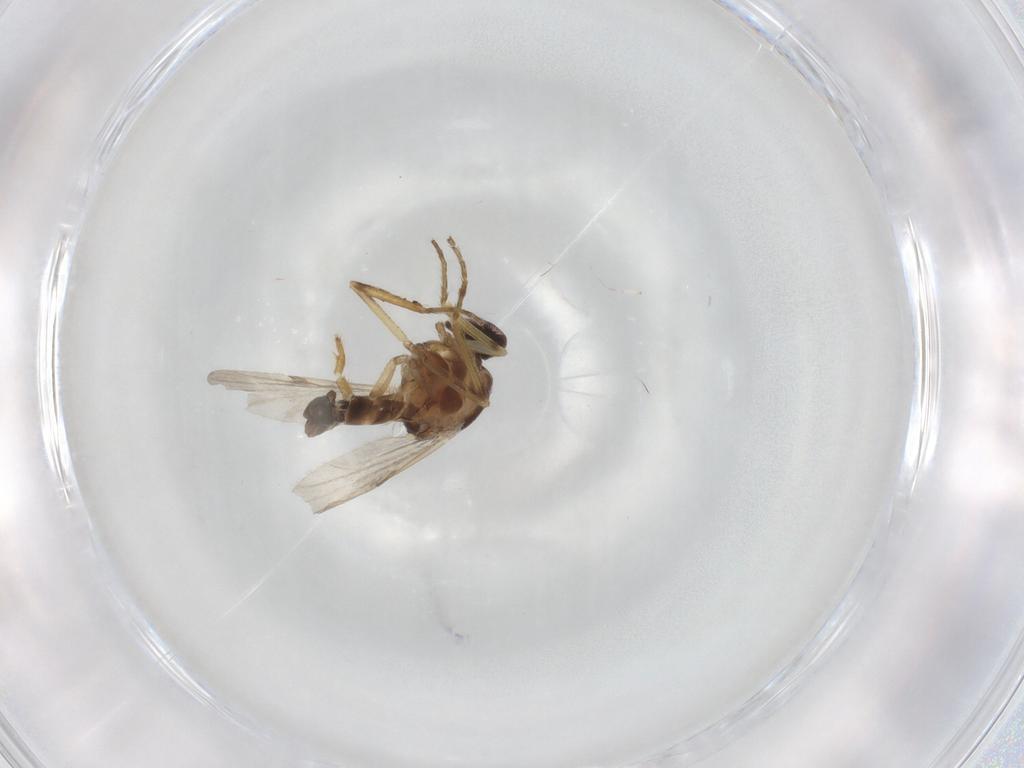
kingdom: Animalia
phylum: Arthropoda
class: Insecta
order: Diptera
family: Ceratopogonidae
